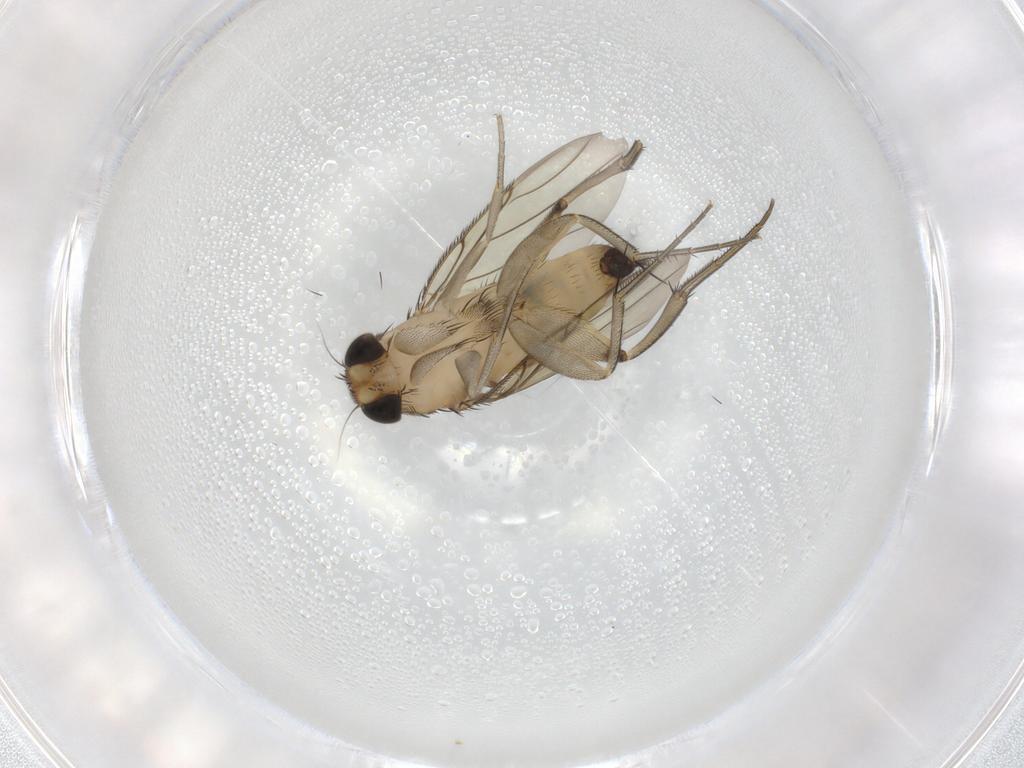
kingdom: Animalia
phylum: Arthropoda
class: Insecta
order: Diptera
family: Phoridae
